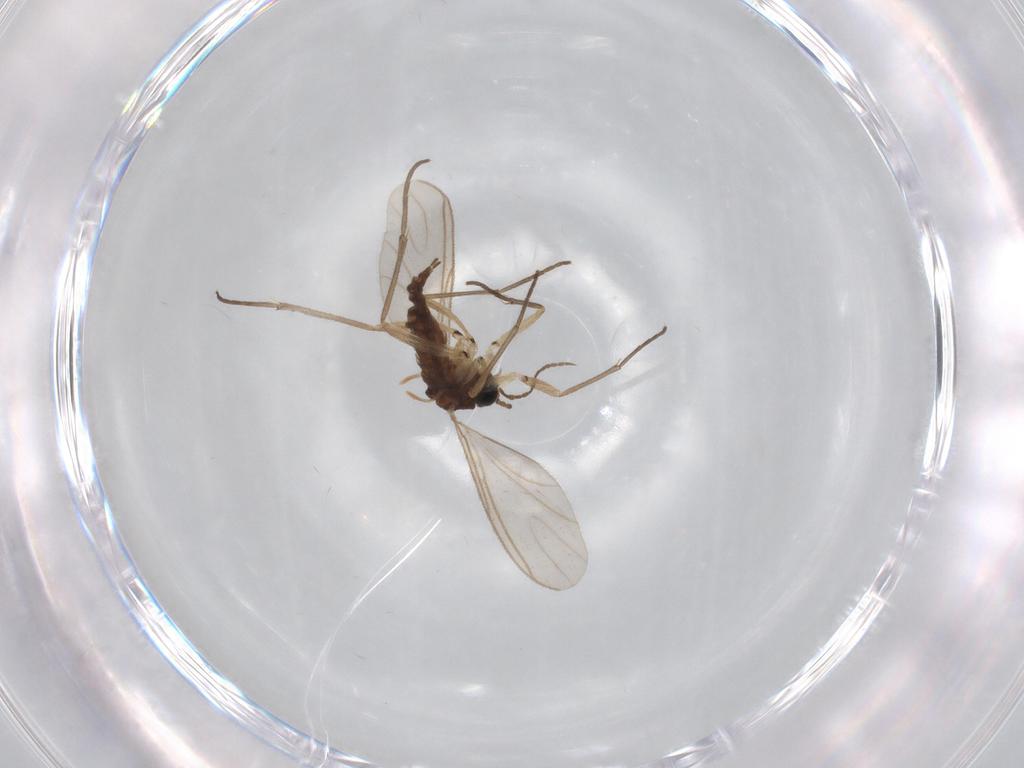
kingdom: Animalia
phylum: Arthropoda
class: Insecta
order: Diptera
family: Sciaridae
